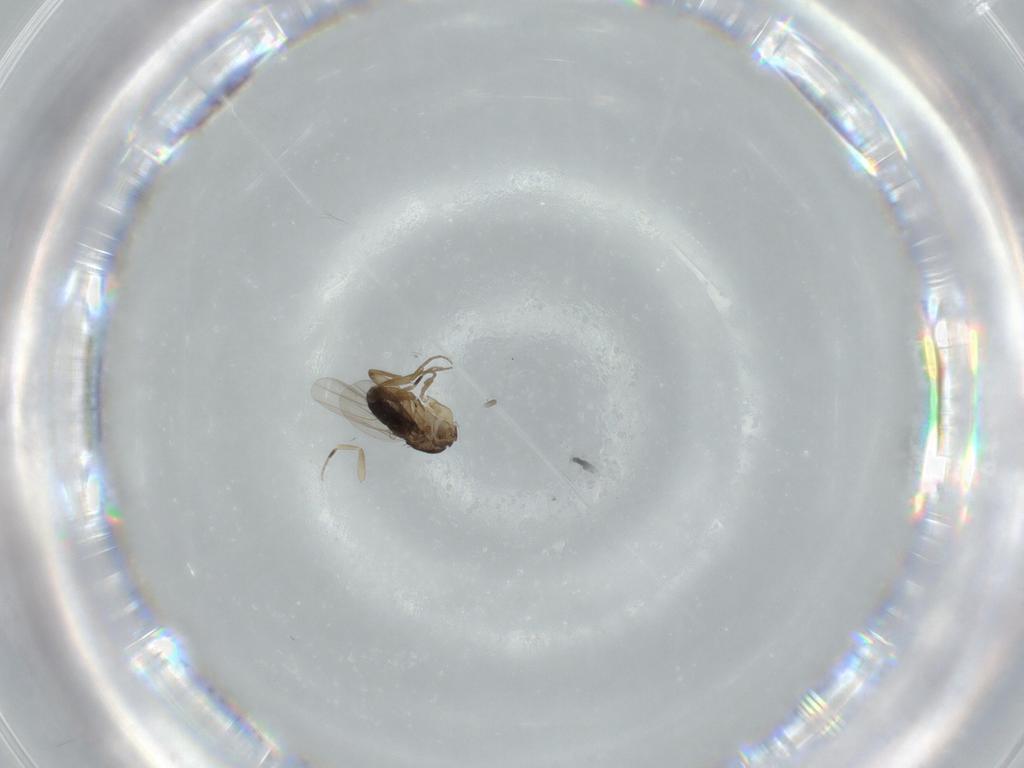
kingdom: Animalia
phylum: Arthropoda
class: Insecta
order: Diptera
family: Phoridae
